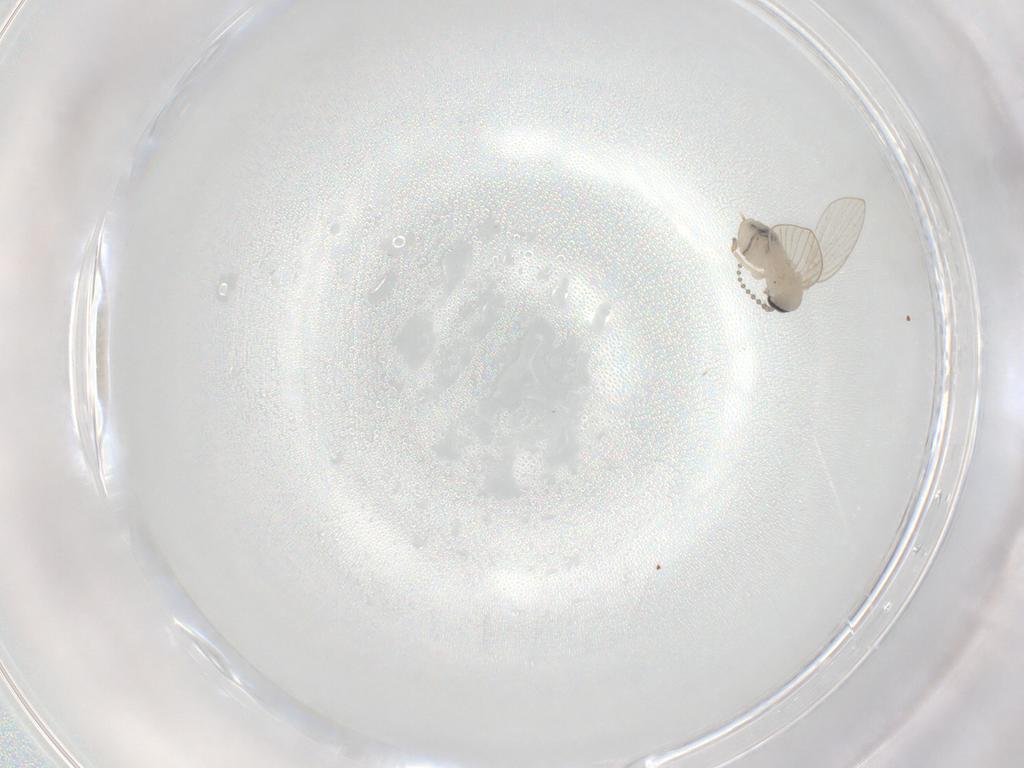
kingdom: Animalia
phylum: Arthropoda
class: Insecta
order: Diptera
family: Psychodidae
